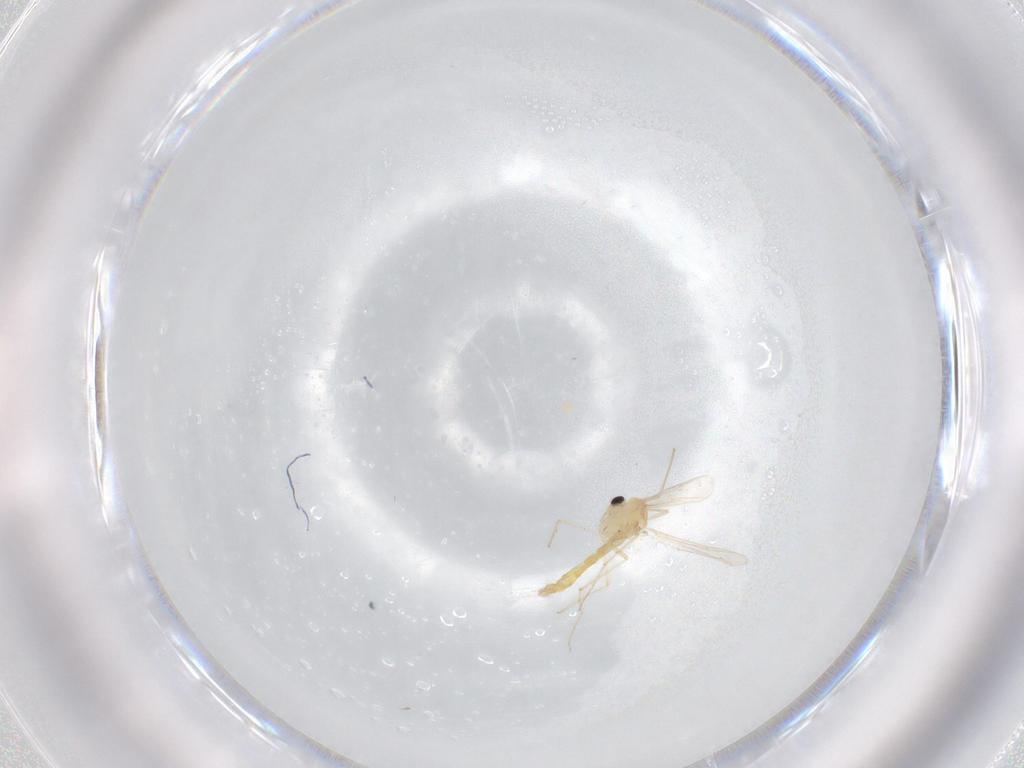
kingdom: Animalia
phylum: Arthropoda
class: Insecta
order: Diptera
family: Chironomidae
